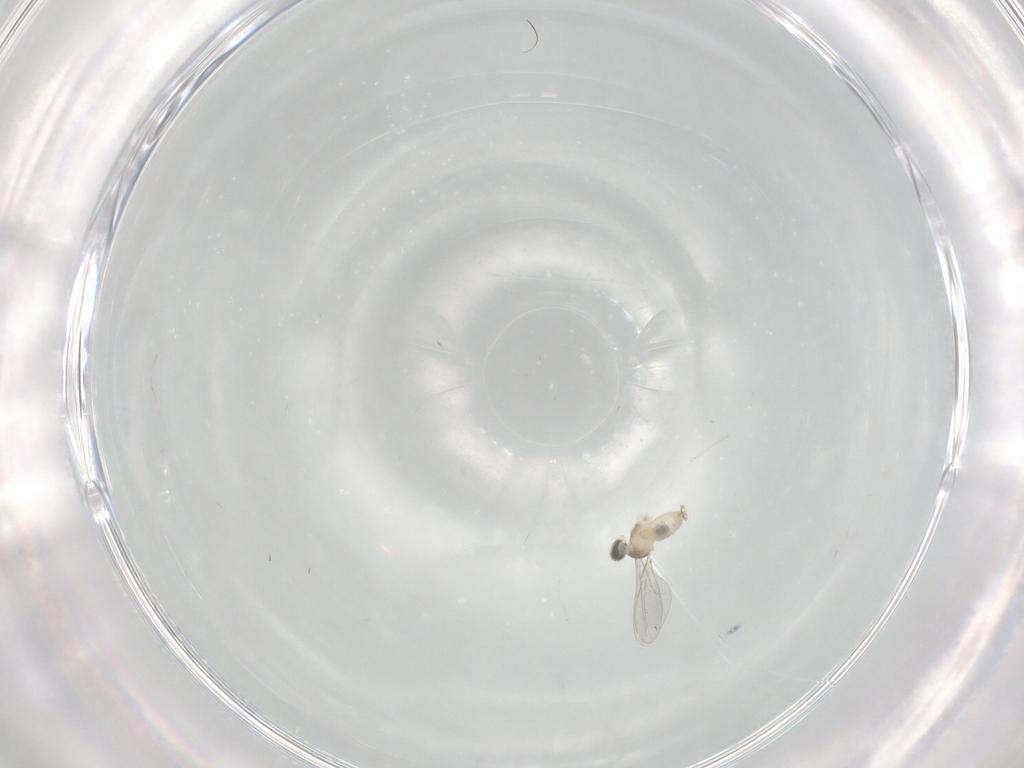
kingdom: Animalia
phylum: Arthropoda
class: Insecta
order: Diptera
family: Cecidomyiidae
